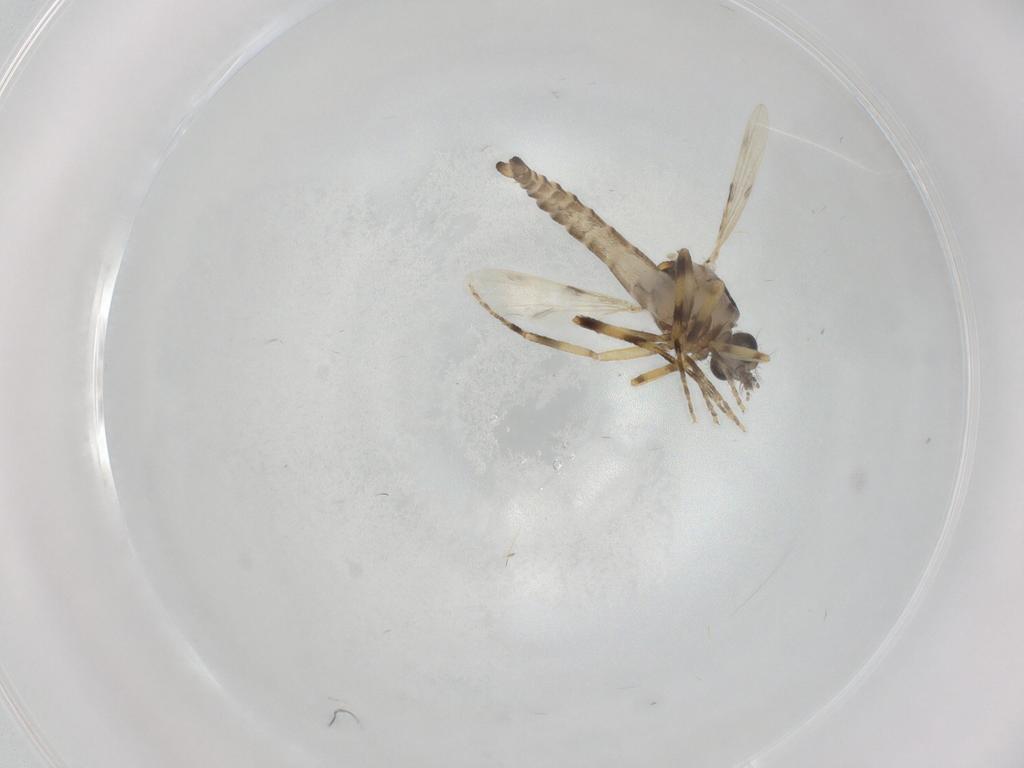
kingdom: Animalia
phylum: Arthropoda
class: Insecta
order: Diptera
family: Ceratopogonidae
